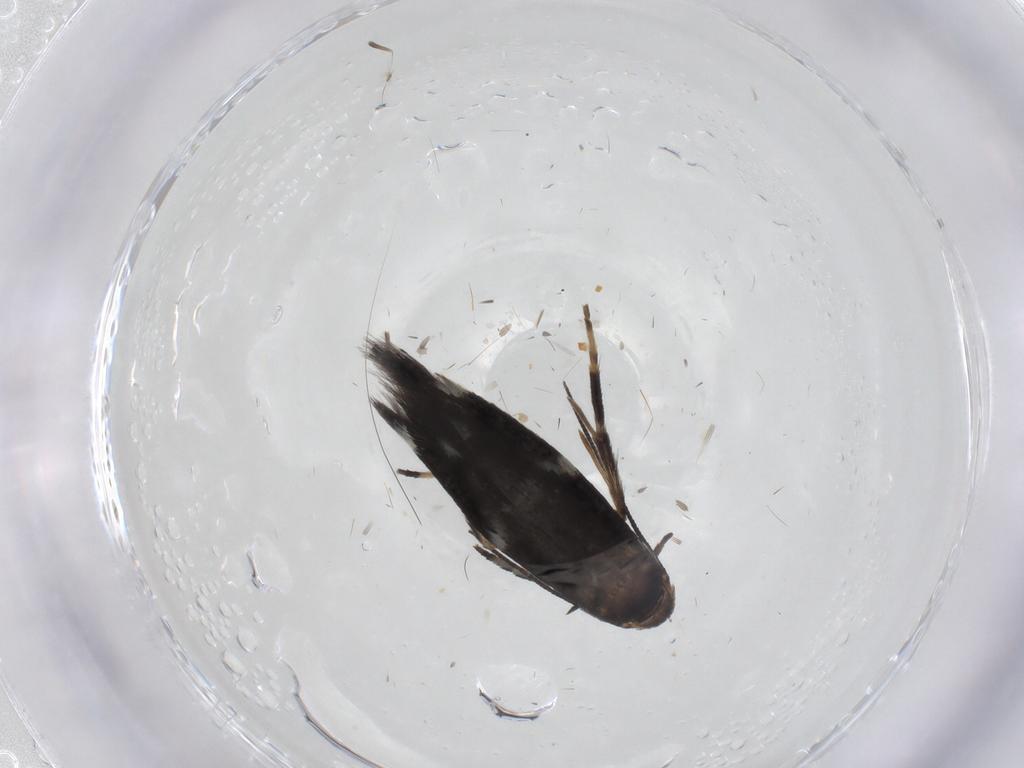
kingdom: Animalia
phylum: Arthropoda
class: Insecta
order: Lepidoptera
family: Gelechiidae
